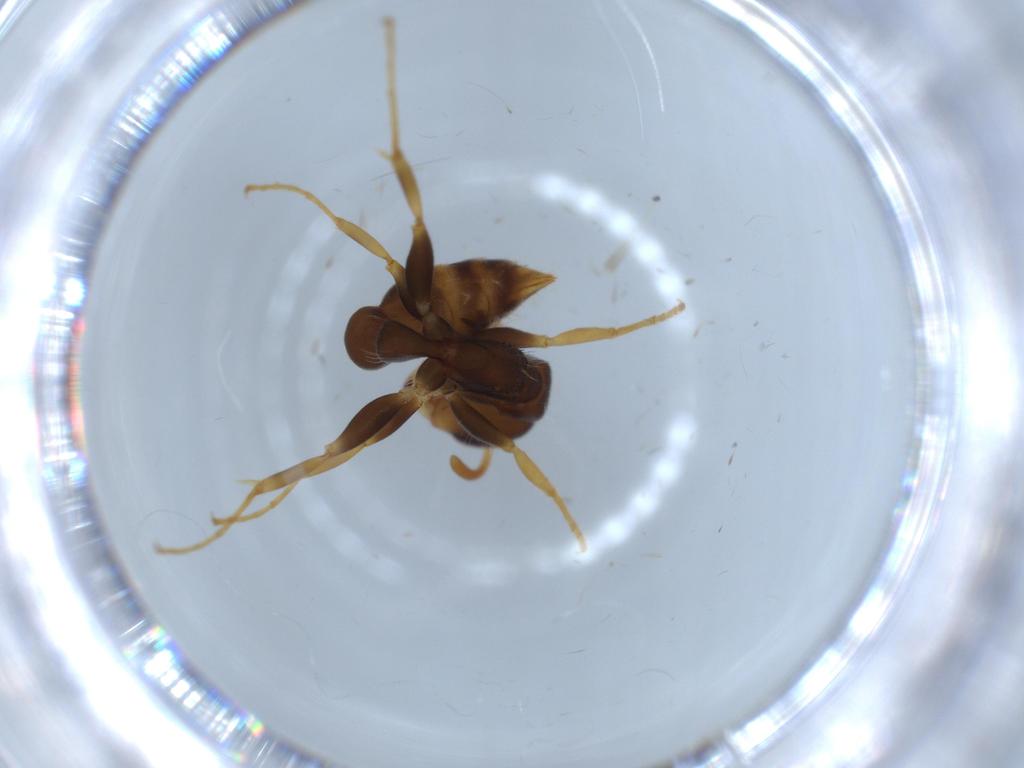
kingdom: Animalia
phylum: Arthropoda
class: Insecta
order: Hymenoptera
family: Formicidae
